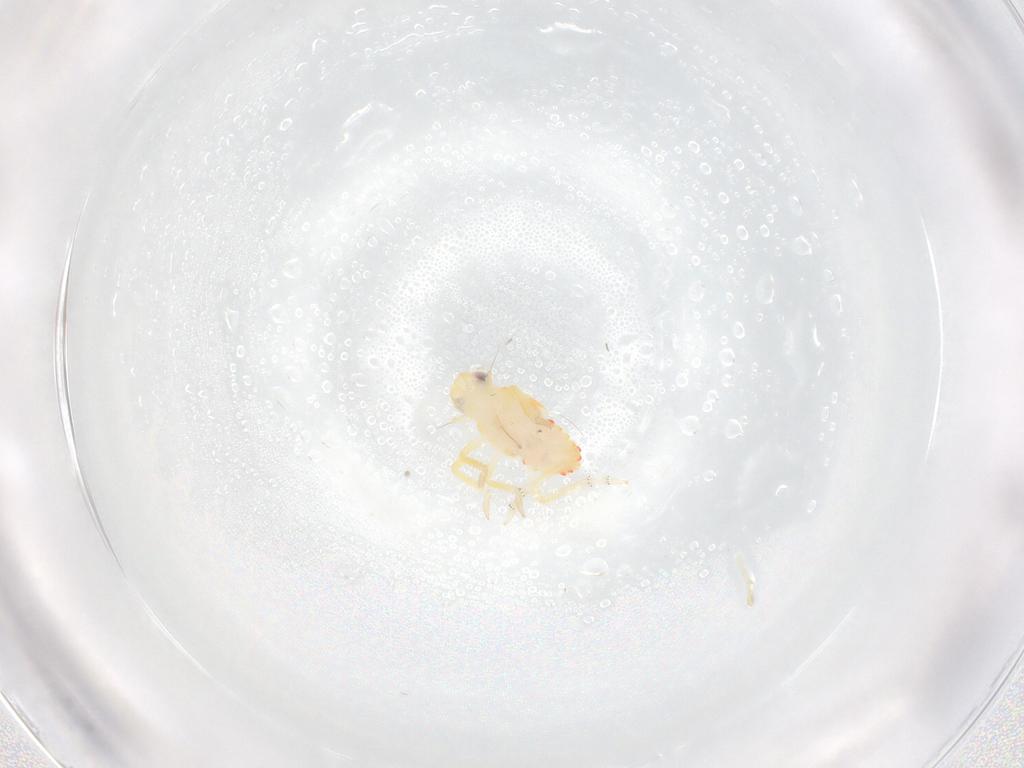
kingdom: Animalia
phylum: Arthropoda
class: Insecta
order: Hemiptera
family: Tropiduchidae
